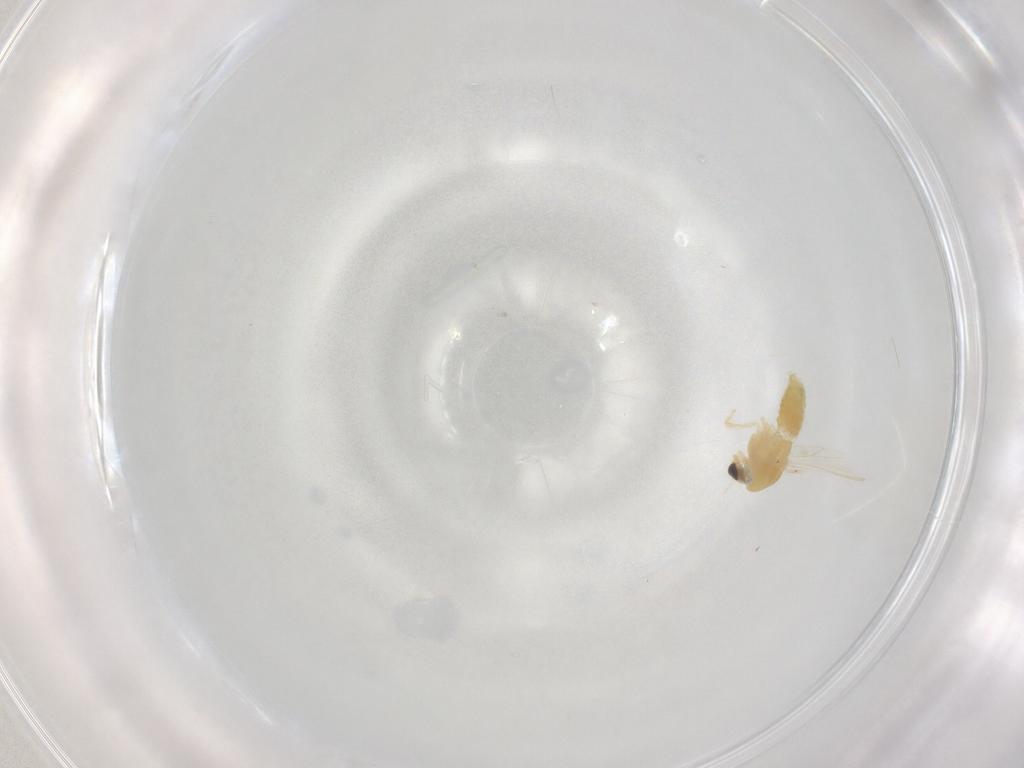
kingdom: Animalia
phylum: Arthropoda
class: Insecta
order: Diptera
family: Chironomidae
